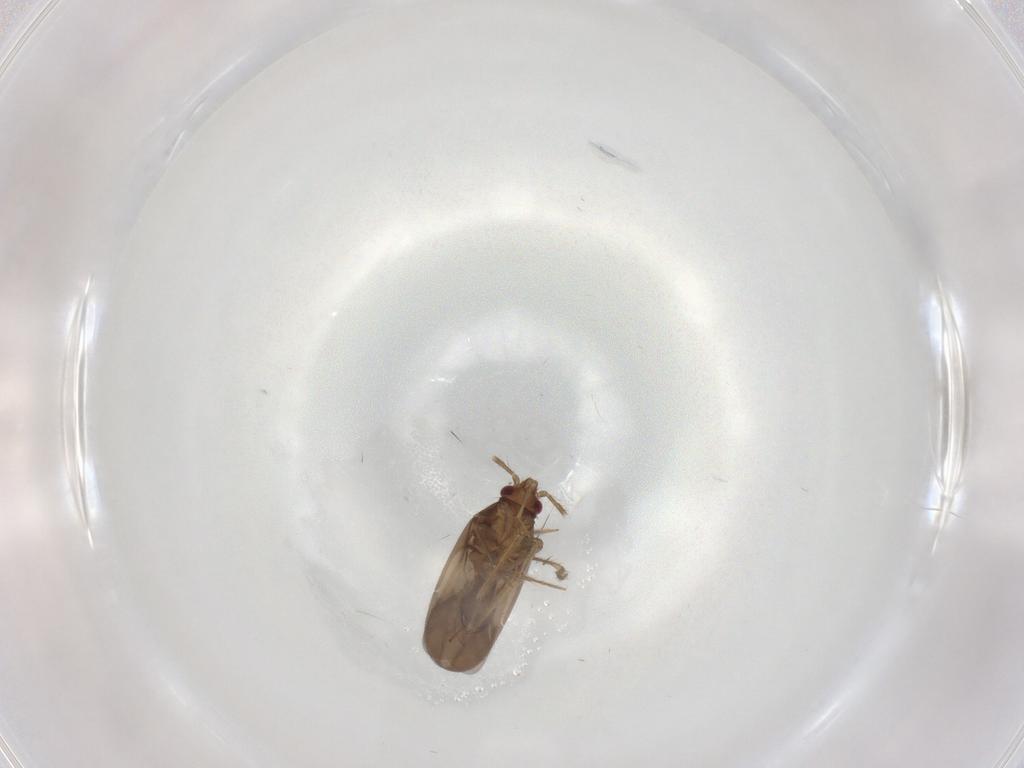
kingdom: Animalia
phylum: Arthropoda
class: Insecta
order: Hemiptera
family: Ceratocombidae
